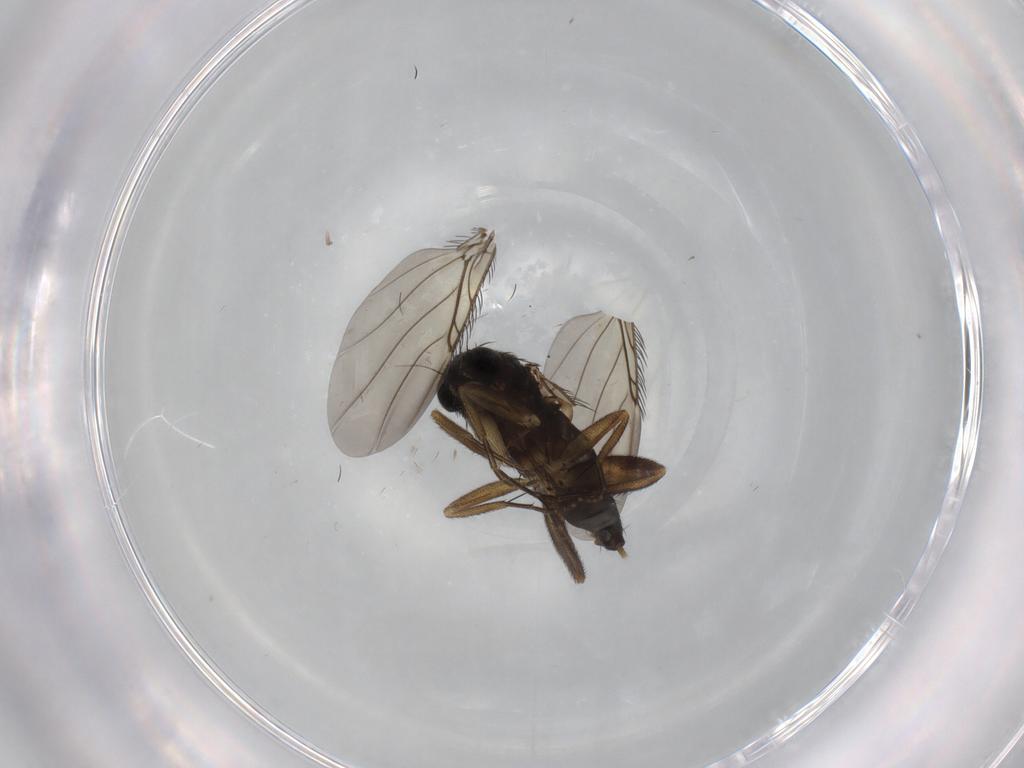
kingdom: Animalia
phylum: Arthropoda
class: Insecta
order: Diptera
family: Phoridae
